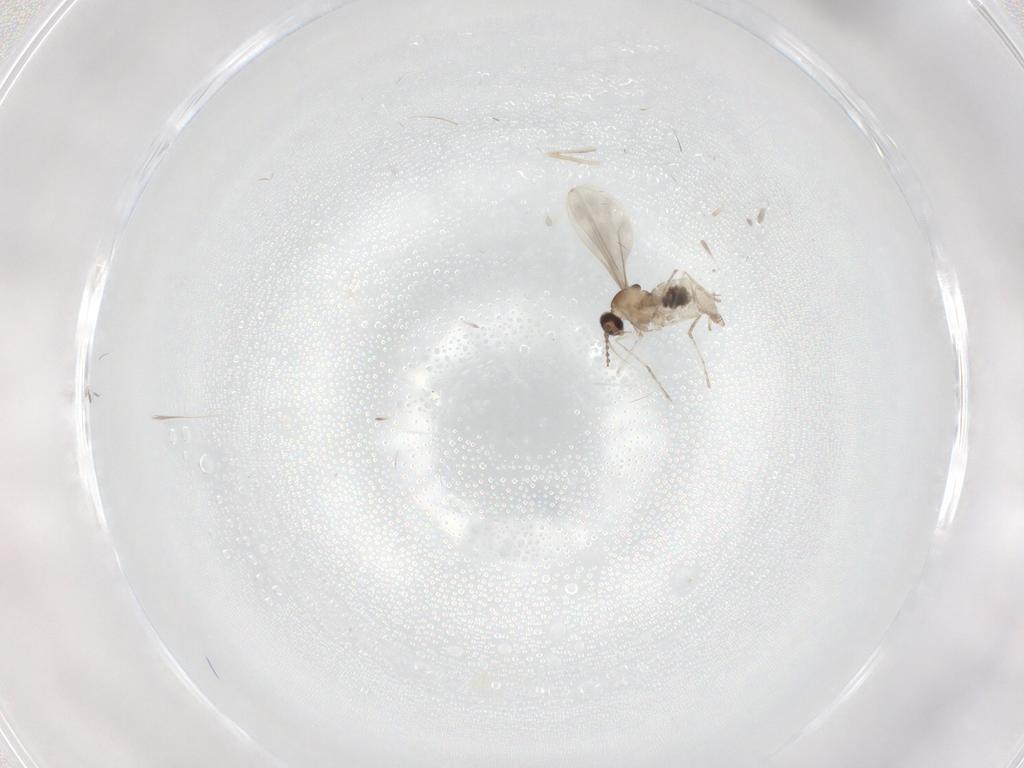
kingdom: Animalia
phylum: Arthropoda
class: Insecta
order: Diptera
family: Cecidomyiidae
